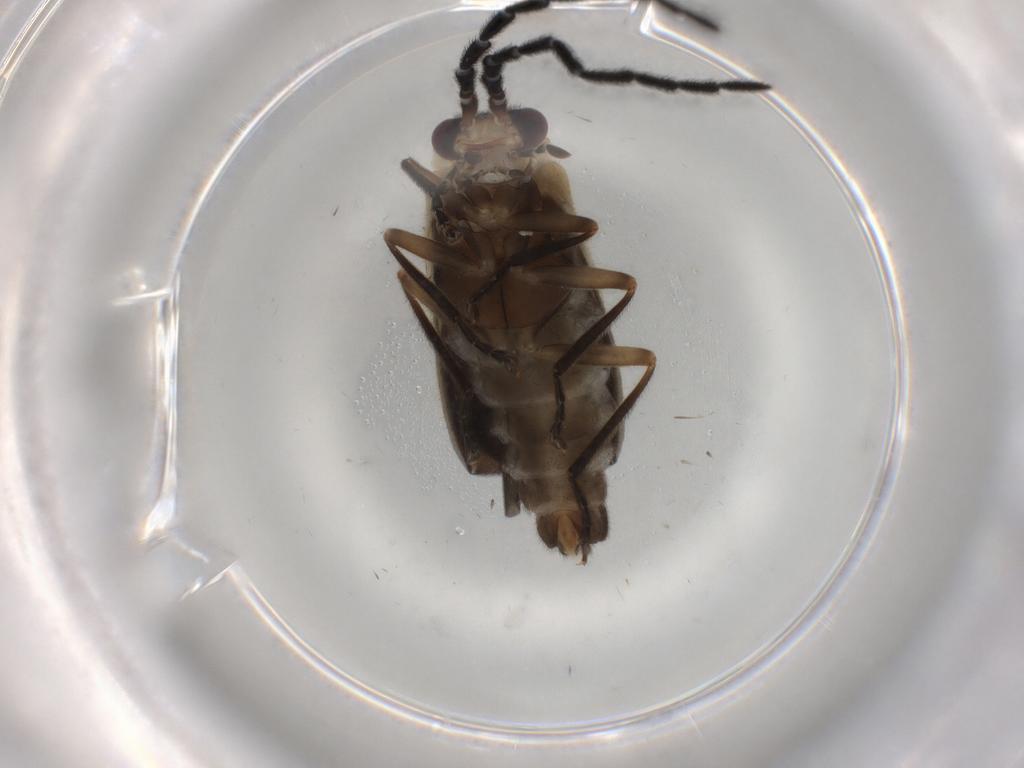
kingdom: Animalia
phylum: Arthropoda
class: Insecta
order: Coleoptera
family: Cantharidae
